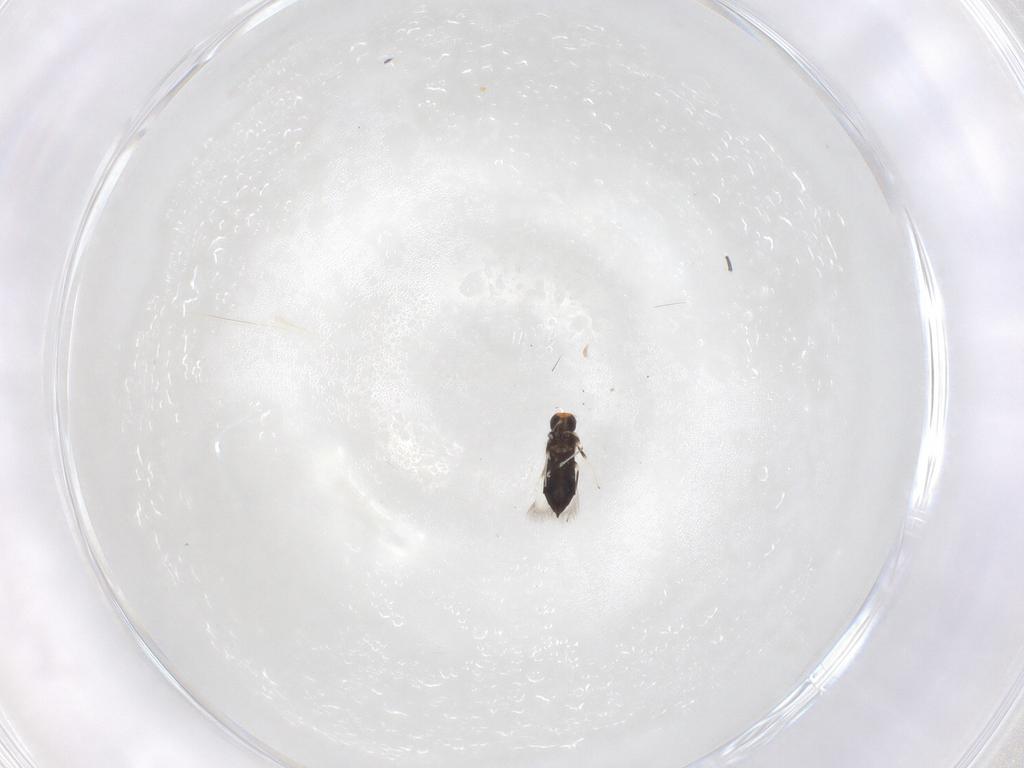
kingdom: Animalia
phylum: Arthropoda
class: Insecta
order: Hymenoptera
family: Signiphoridae
